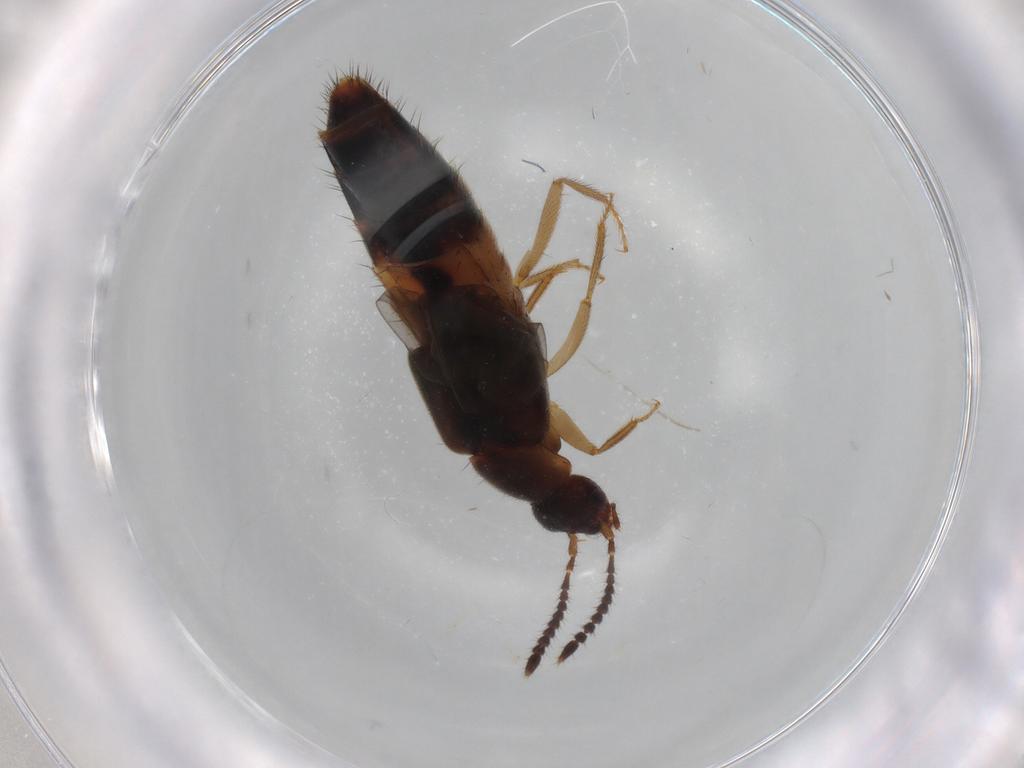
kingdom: Animalia
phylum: Arthropoda
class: Insecta
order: Coleoptera
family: Staphylinidae
